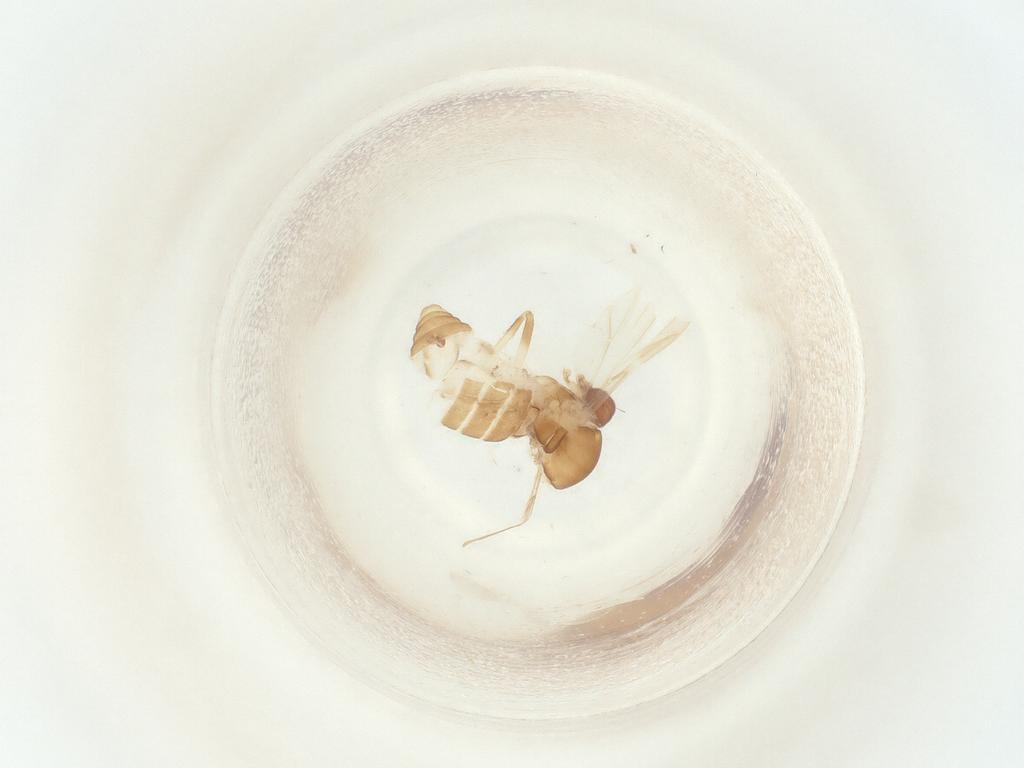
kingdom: Animalia
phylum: Arthropoda
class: Insecta
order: Diptera
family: Ceratopogonidae
